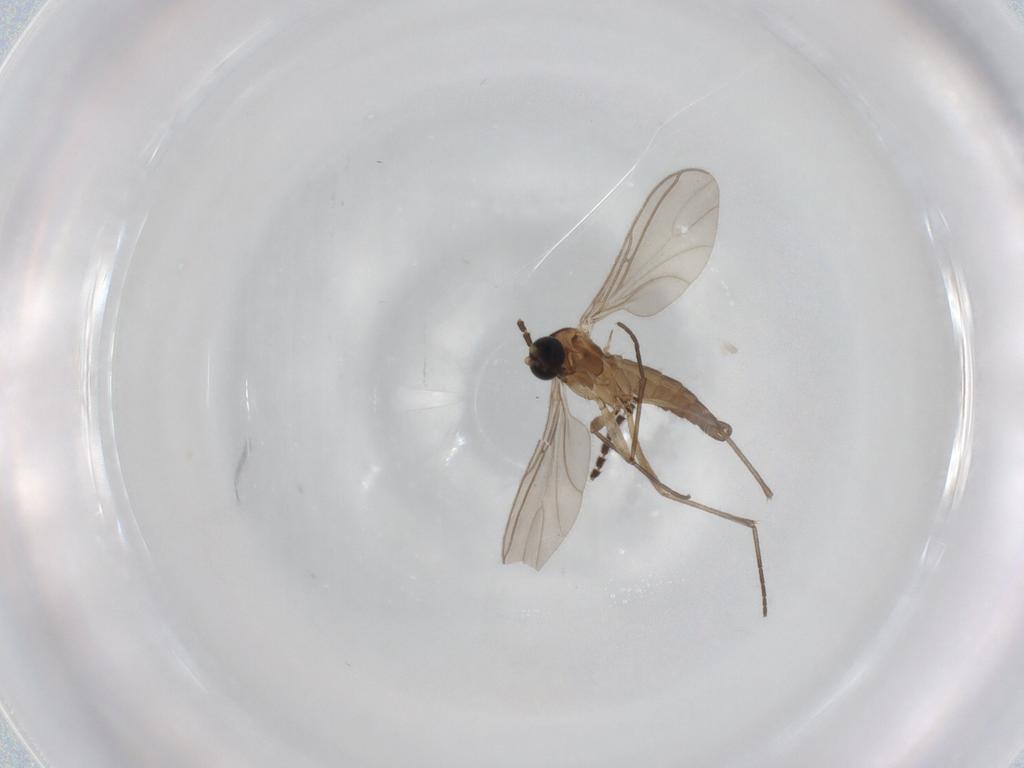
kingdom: Animalia
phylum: Arthropoda
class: Insecta
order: Diptera
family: Sciaridae
